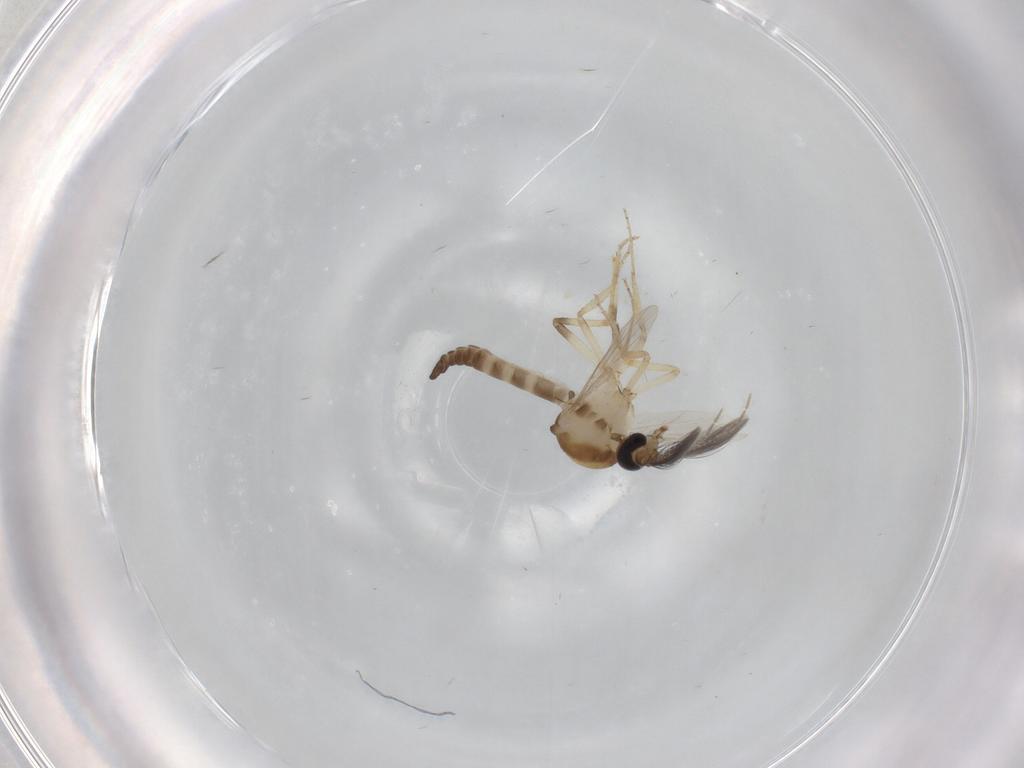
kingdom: Animalia
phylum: Arthropoda
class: Insecta
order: Diptera
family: Ceratopogonidae
